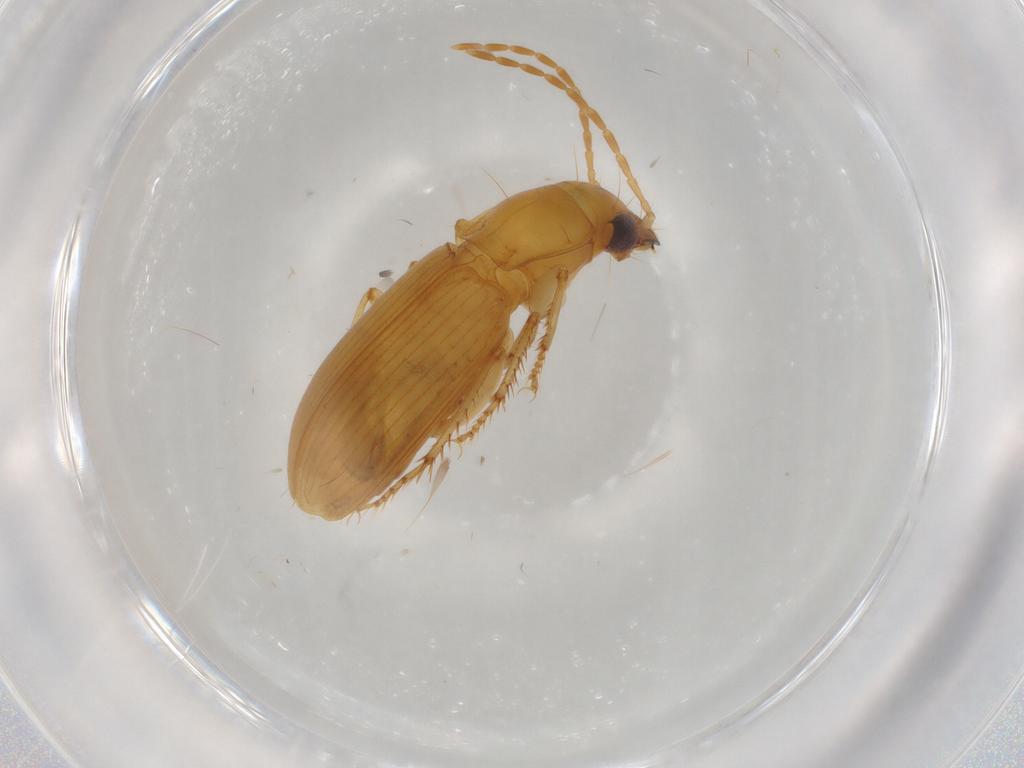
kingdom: Animalia
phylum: Arthropoda
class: Insecta
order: Coleoptera
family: Carabidae
